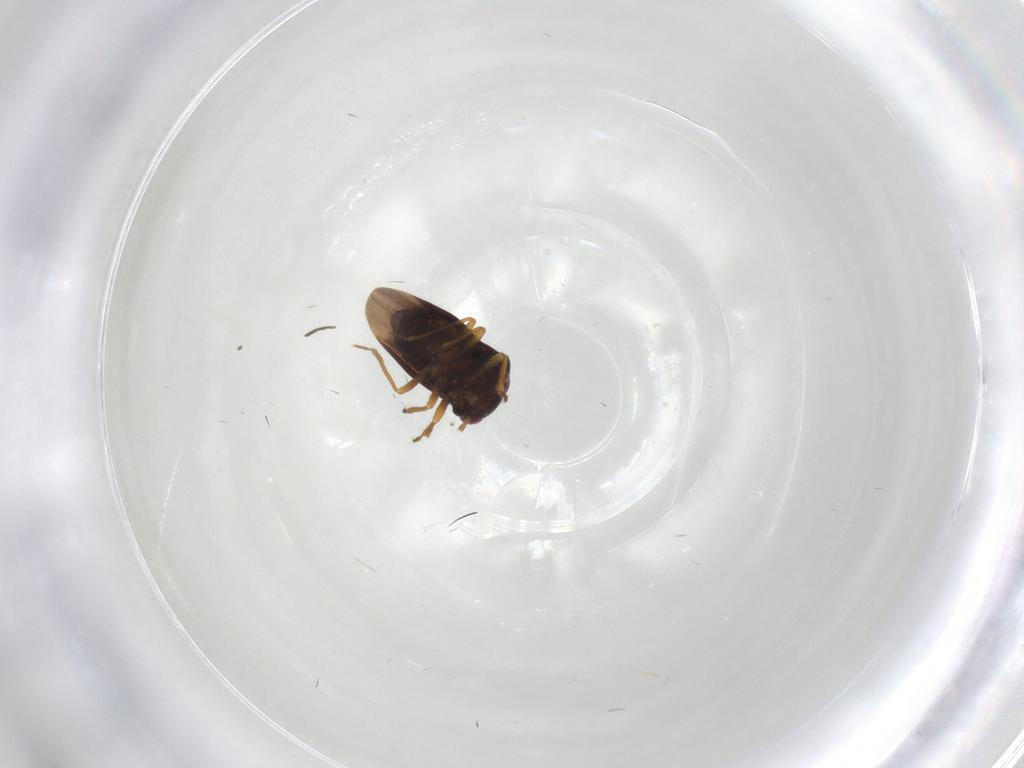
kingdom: Animalia
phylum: Arthropoda
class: Insecta
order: Hemiptera
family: Schizopteridae
